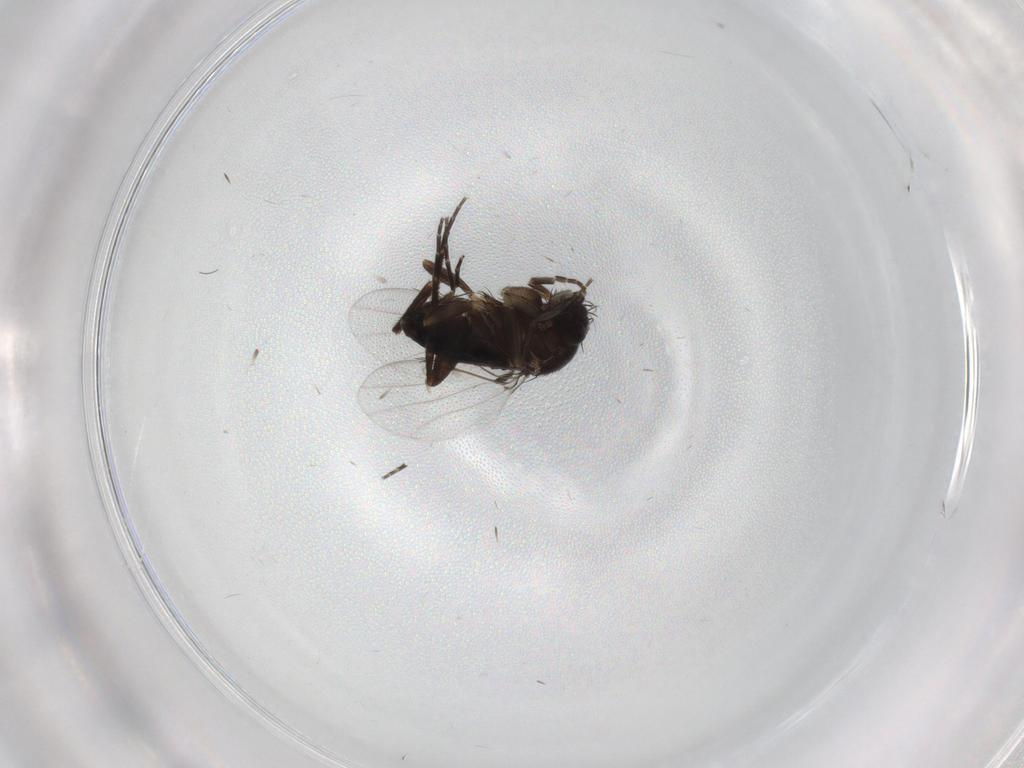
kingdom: Animalia
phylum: Arthropoda
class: Insecta
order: Diptera
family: Phoridae
